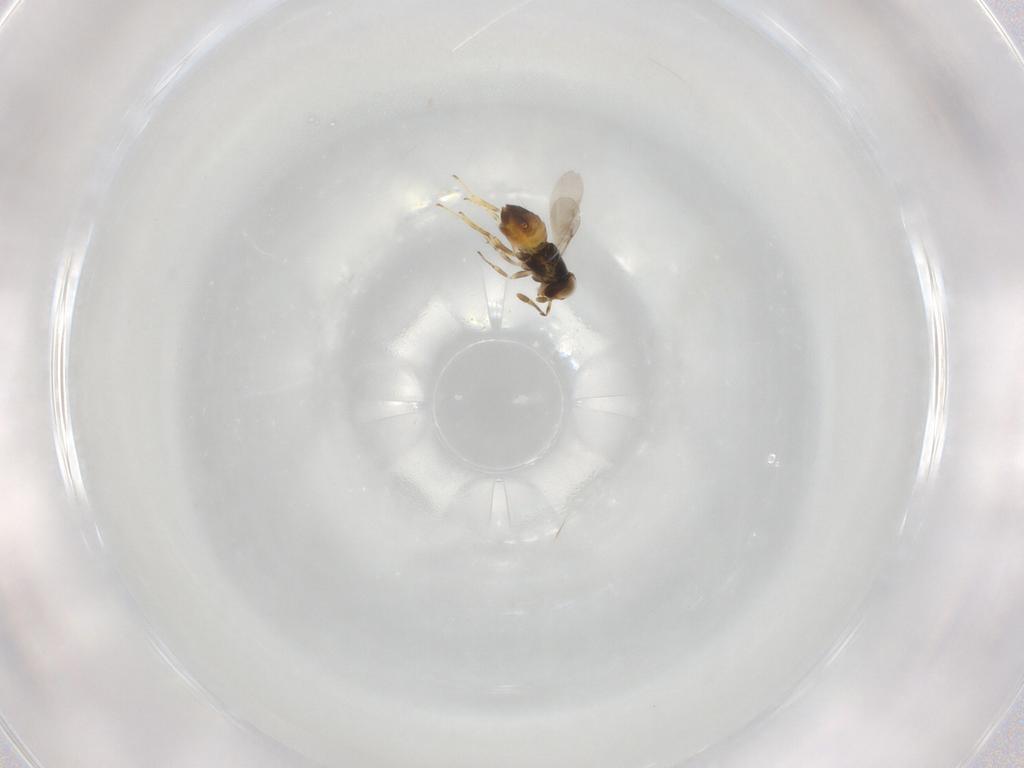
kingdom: Animalia
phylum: Arthropoda
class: Insecta
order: Hymenoptera
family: Encyrtidae
